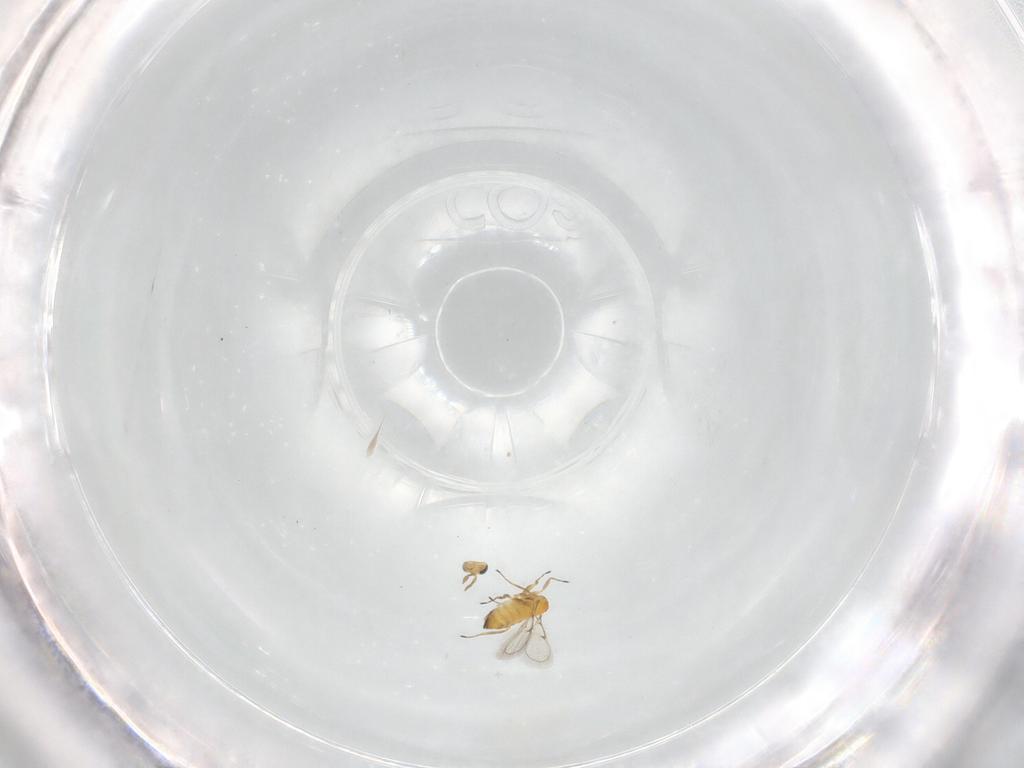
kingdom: Animalia
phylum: Arthropoda
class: Insecta
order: Hymenoptera
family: Trichogrammatidae
